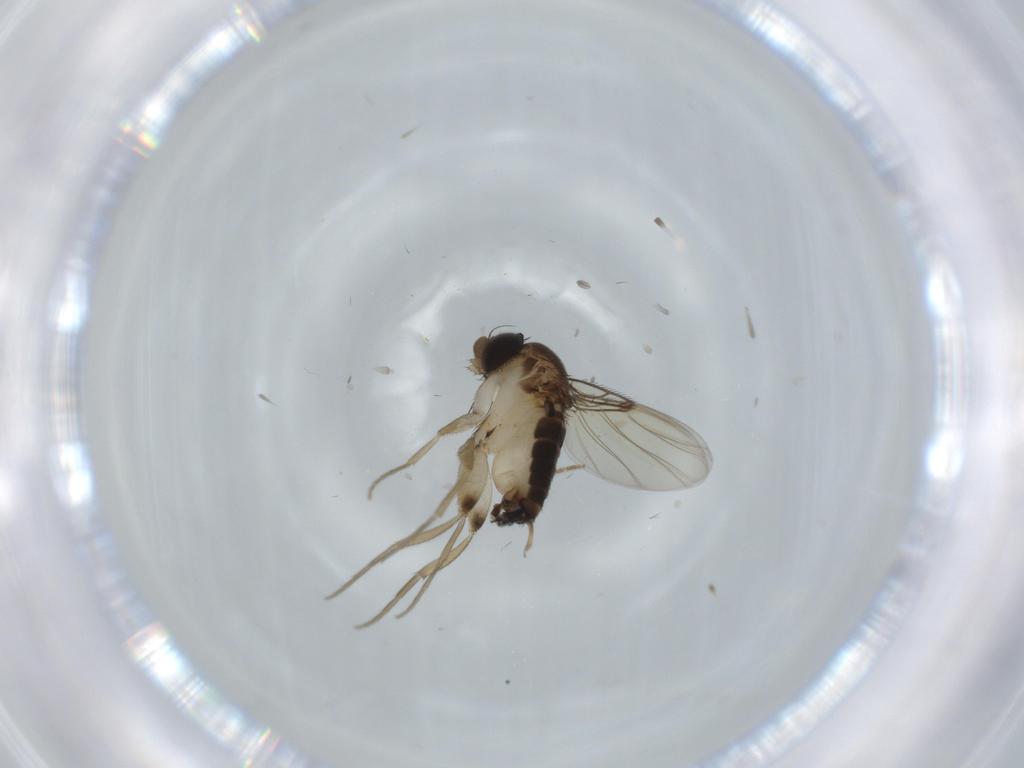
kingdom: Animalia
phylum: Arthropoda
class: Insecta
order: Diptera
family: Phoridae
